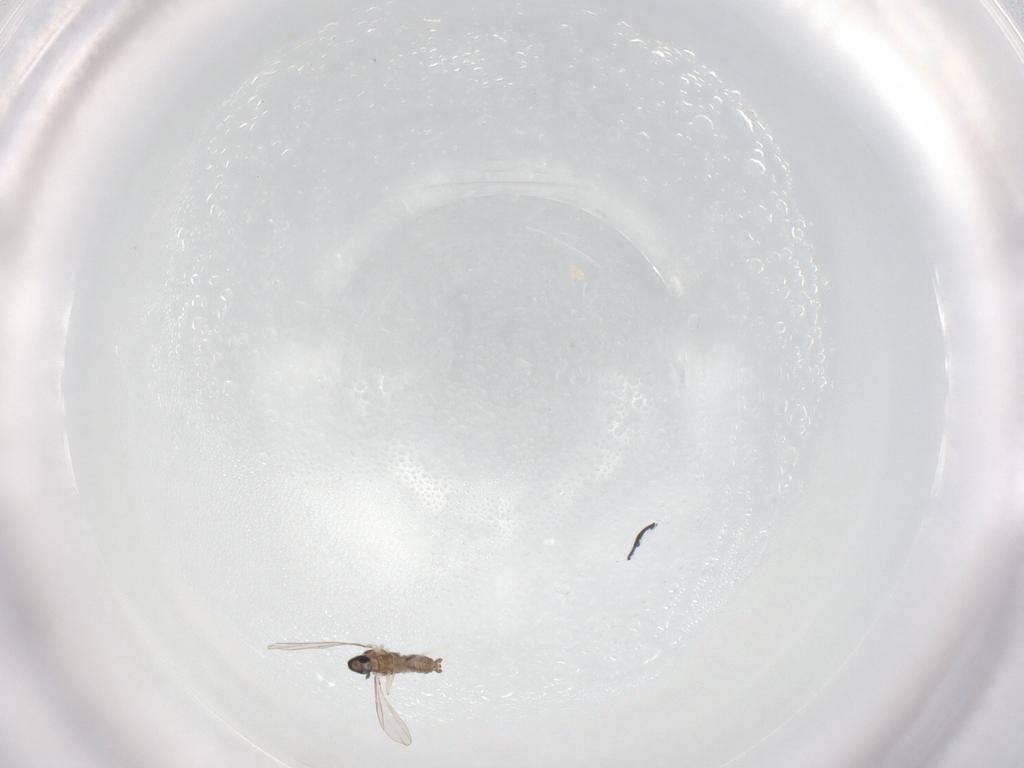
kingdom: Animalia
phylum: Arthropoda
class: Insecta
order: Diptera
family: Cecidomyiidae
